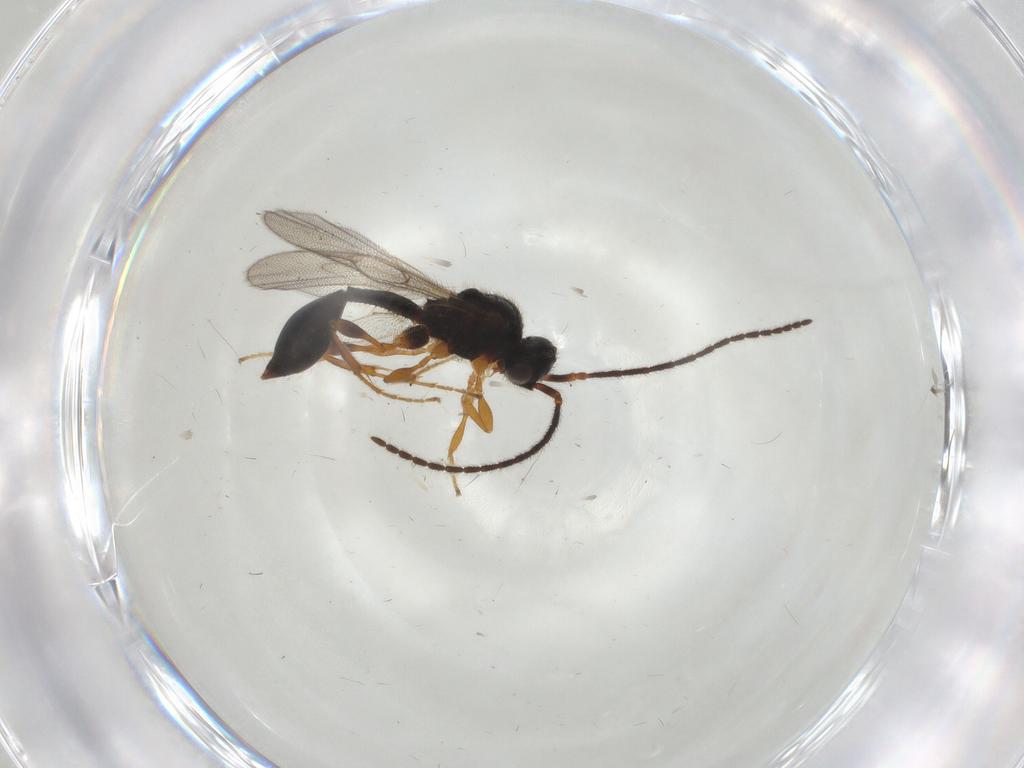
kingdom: Animalia
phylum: Arthropoda
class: Insecta
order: Hymenoptera
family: Diapriidae
